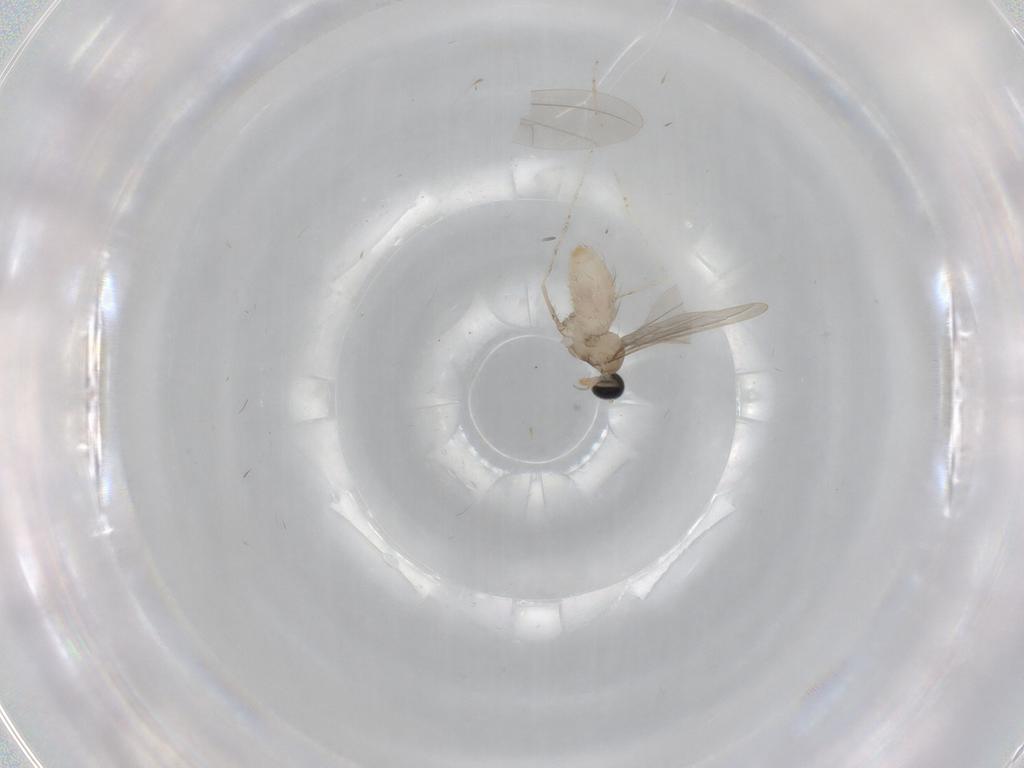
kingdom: Animalia
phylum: Arthropoda
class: Insecta
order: Diptera
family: Cecidomyiidae
